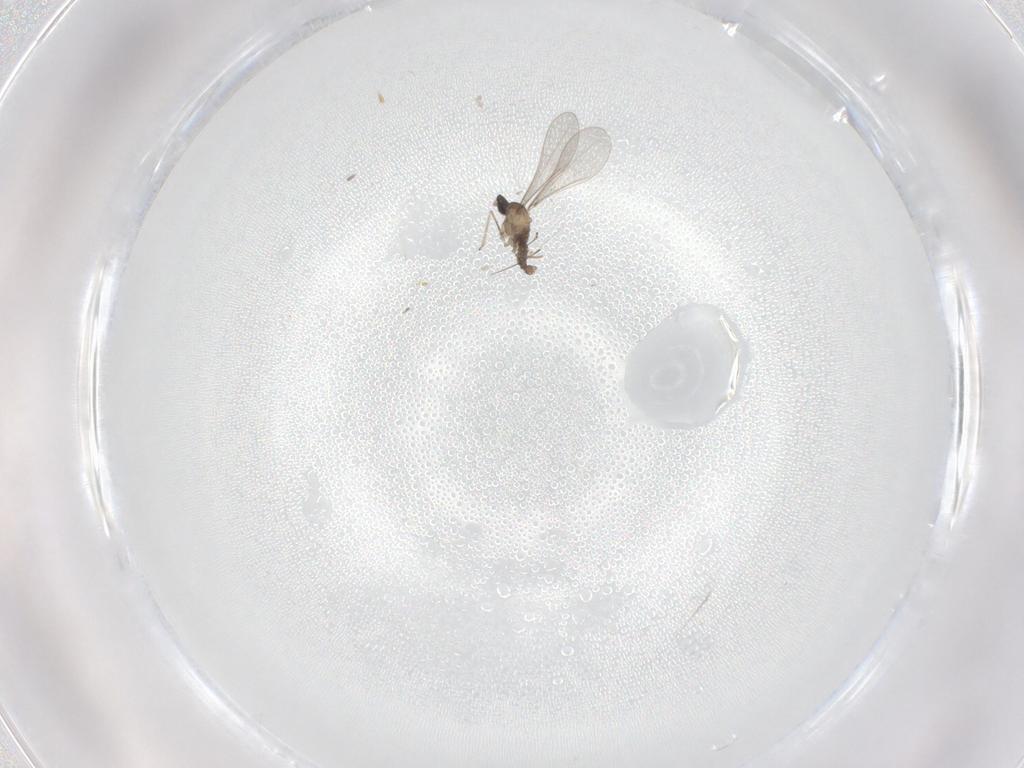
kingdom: Animalia
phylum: Arthropoda
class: Insecta
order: Diptera
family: Cecidomyiidae
